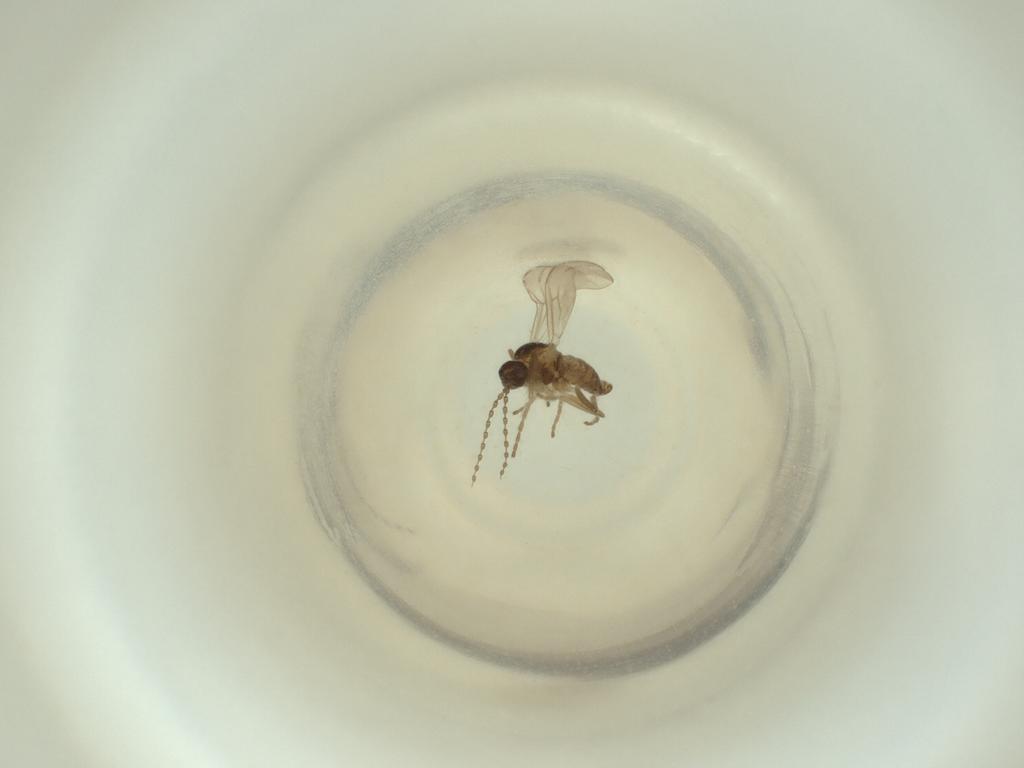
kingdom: Animalia
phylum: Arthropoda
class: Insecta
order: Diptera
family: Cecidomyiidae
